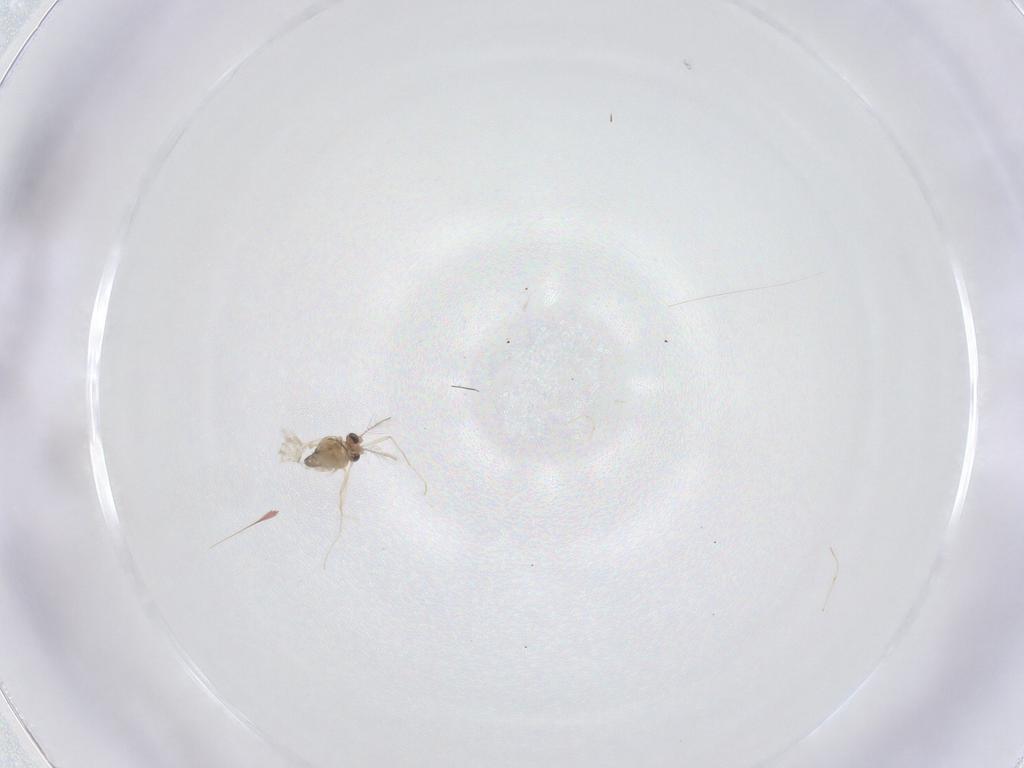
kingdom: Animalia
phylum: Arthropoda
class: Insecta
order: Diptera
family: Chironomidae
